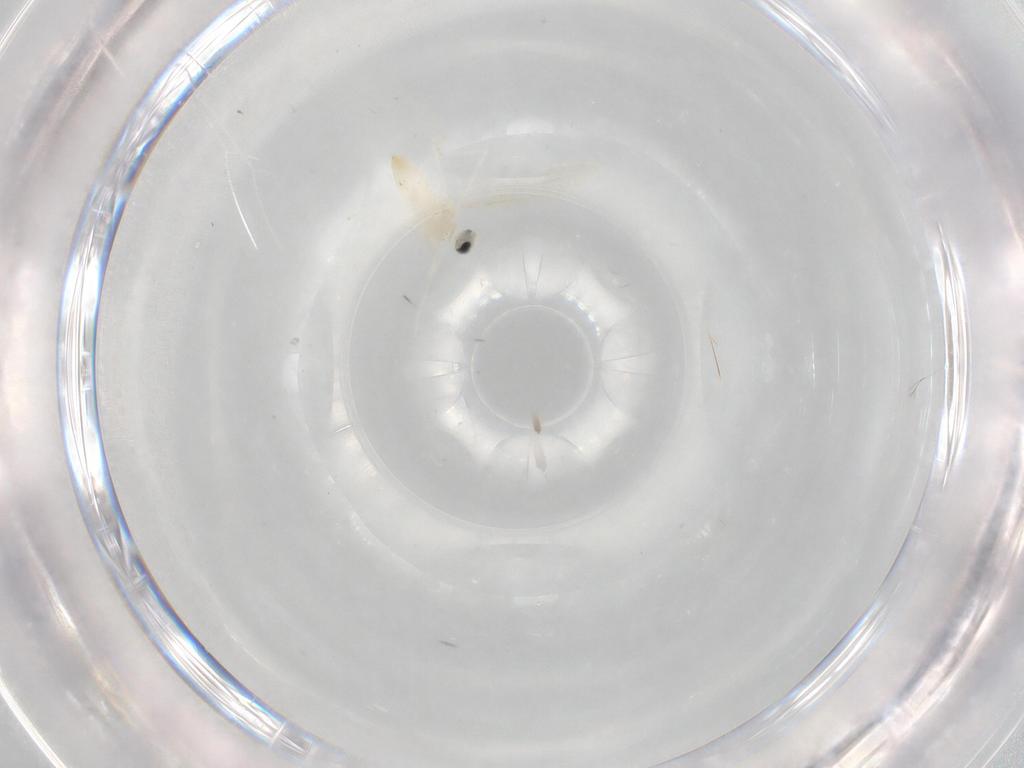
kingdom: Animalia
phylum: Arthropoda
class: Insecta
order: Diptera
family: Cecidomyiidae
